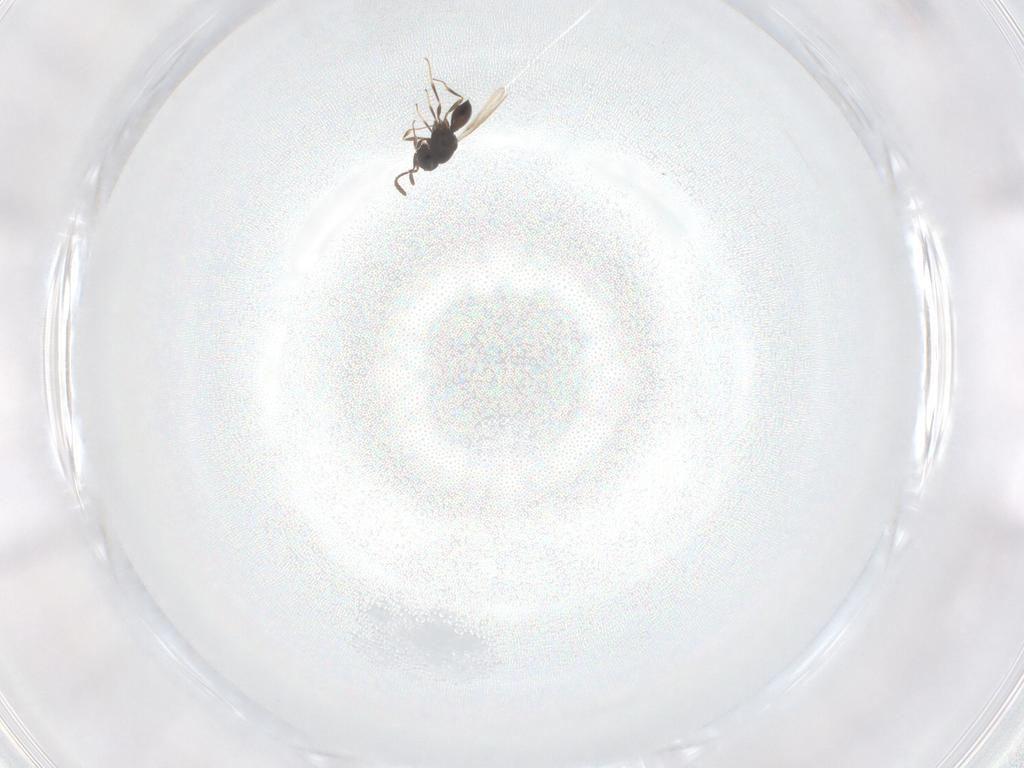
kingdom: Animalia
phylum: Arthropoda
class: Insecta
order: Hymenoptera
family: Scelionidae
